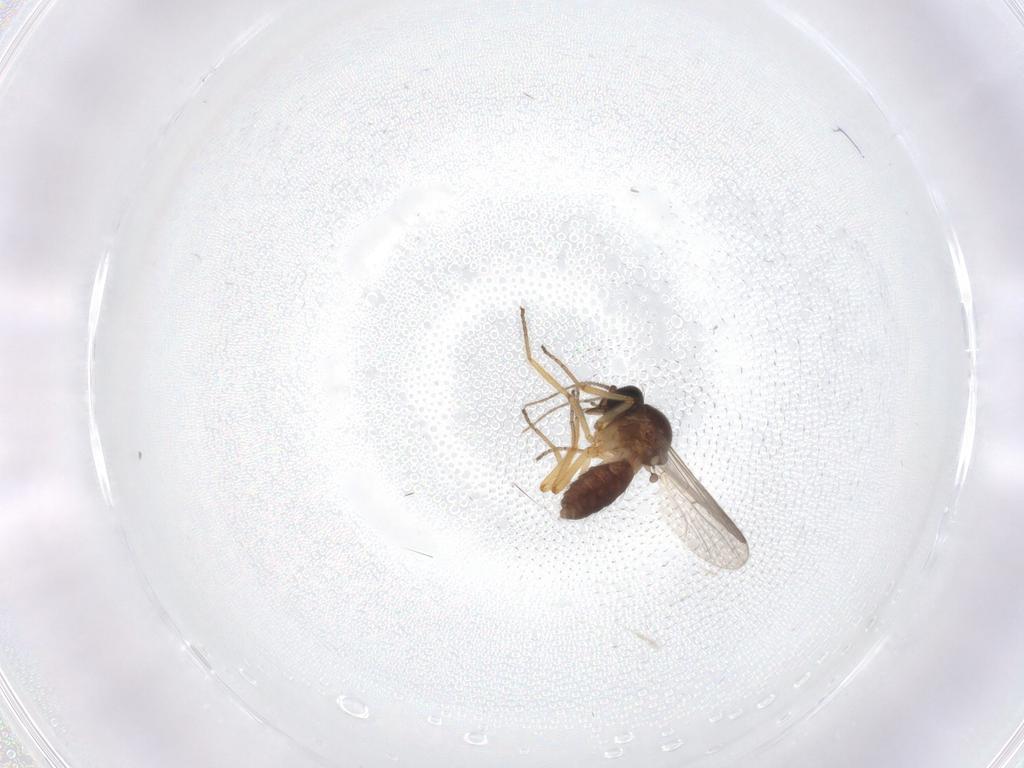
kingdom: Animalia
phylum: Arthropoda
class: Insecta
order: Diptera
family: Ceratopogonidae
